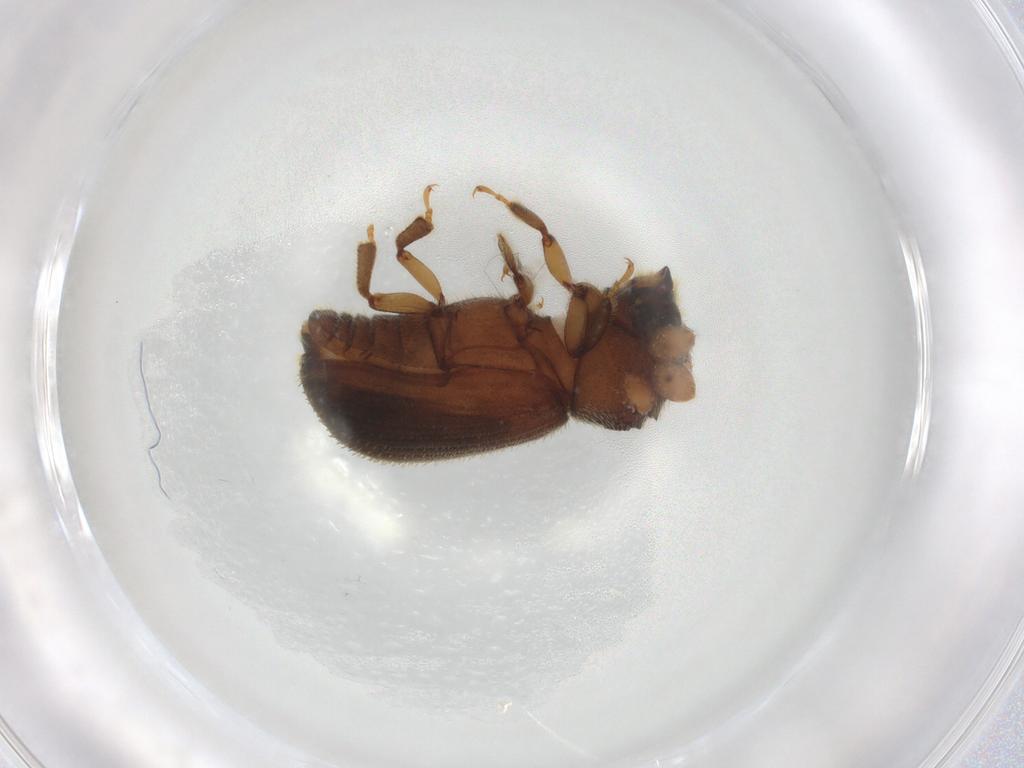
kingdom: Animalia
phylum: Arthropoda
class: Insecta
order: Coleoptera
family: Curculionidae
